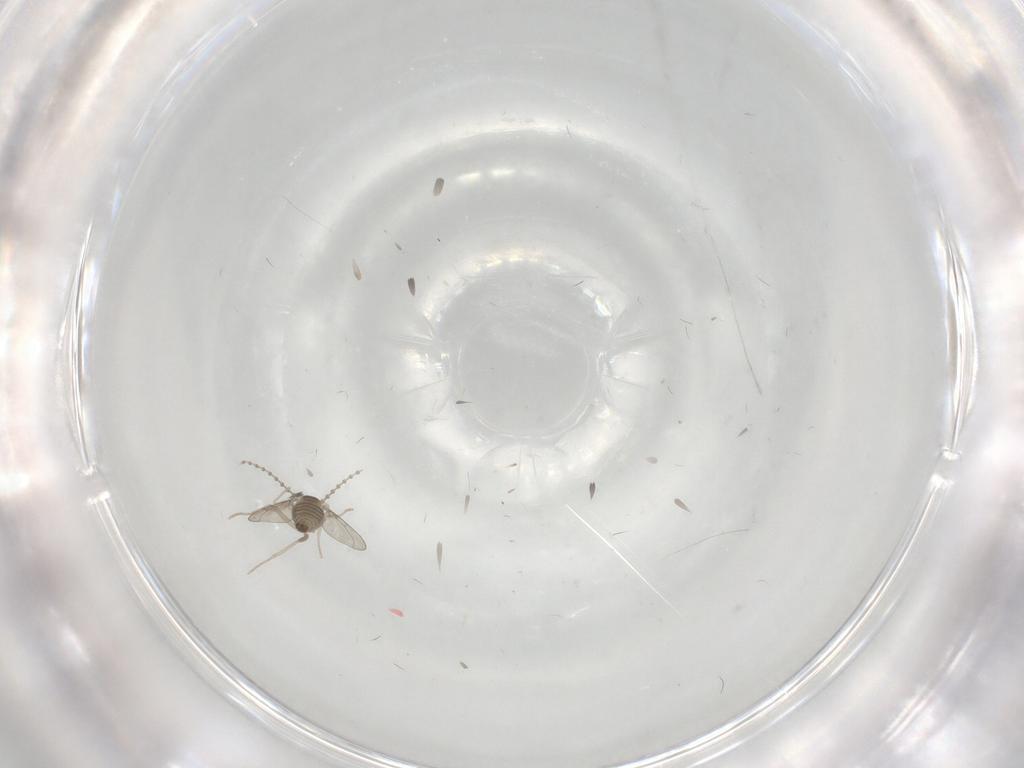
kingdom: Animalia
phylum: Arthropoda
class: Insecta
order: Diptera
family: Cecidomyiidae
